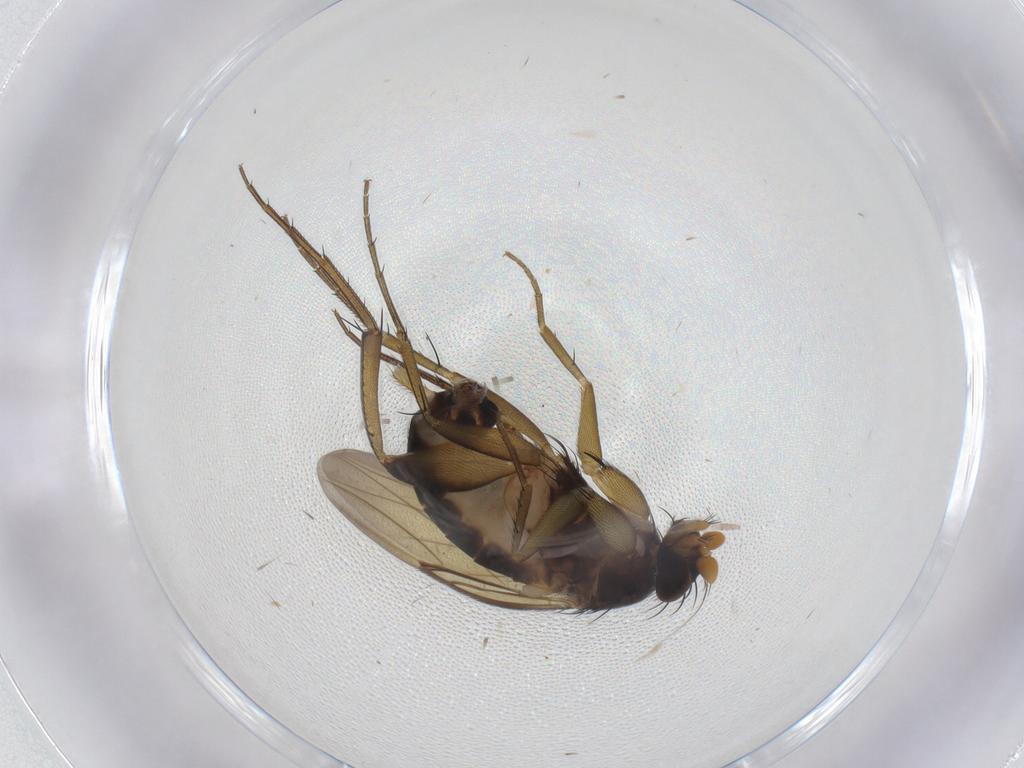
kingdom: Animalia
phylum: Arthropoda
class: Insecta
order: Diptera
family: Phoridae
